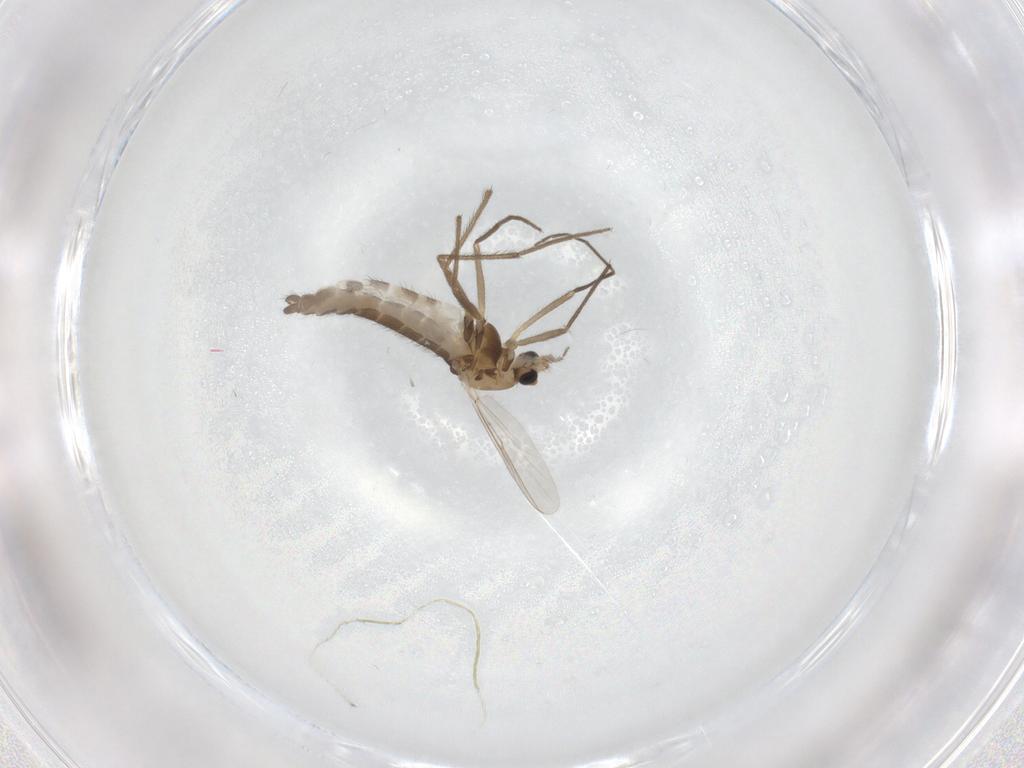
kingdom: Animalia
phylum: Arthropoda
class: Insecta
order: Diptera
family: Chironomidae
